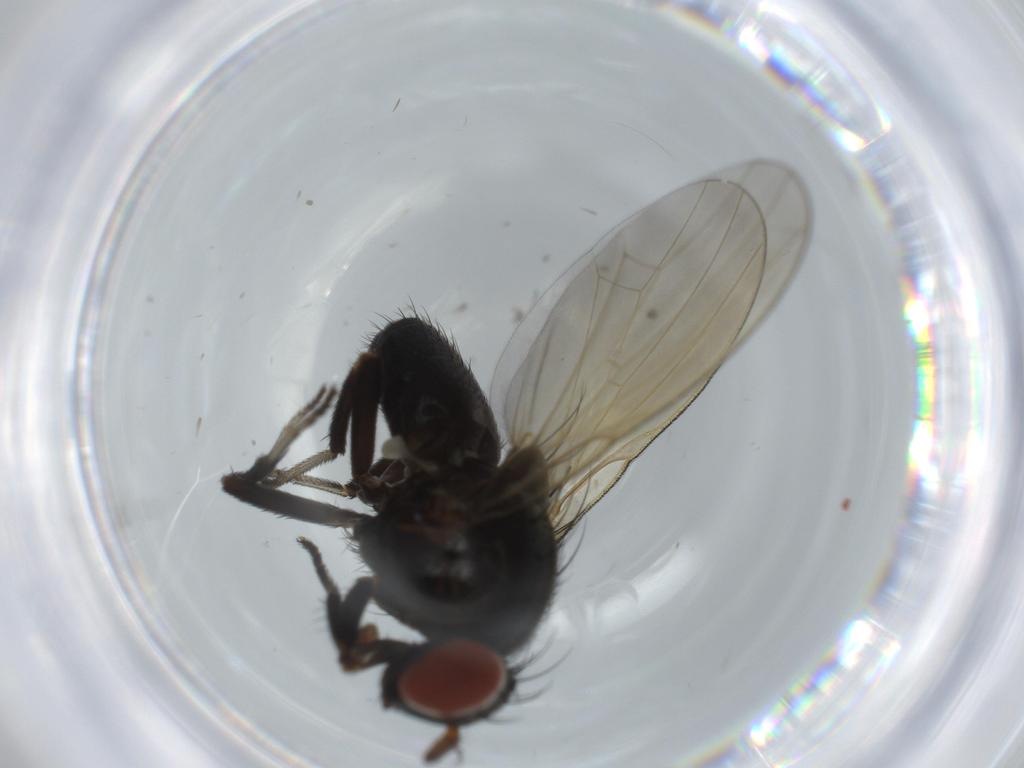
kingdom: Animalia
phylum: Arthropoda
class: Insecta
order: Diptera
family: Lauxaniidae
